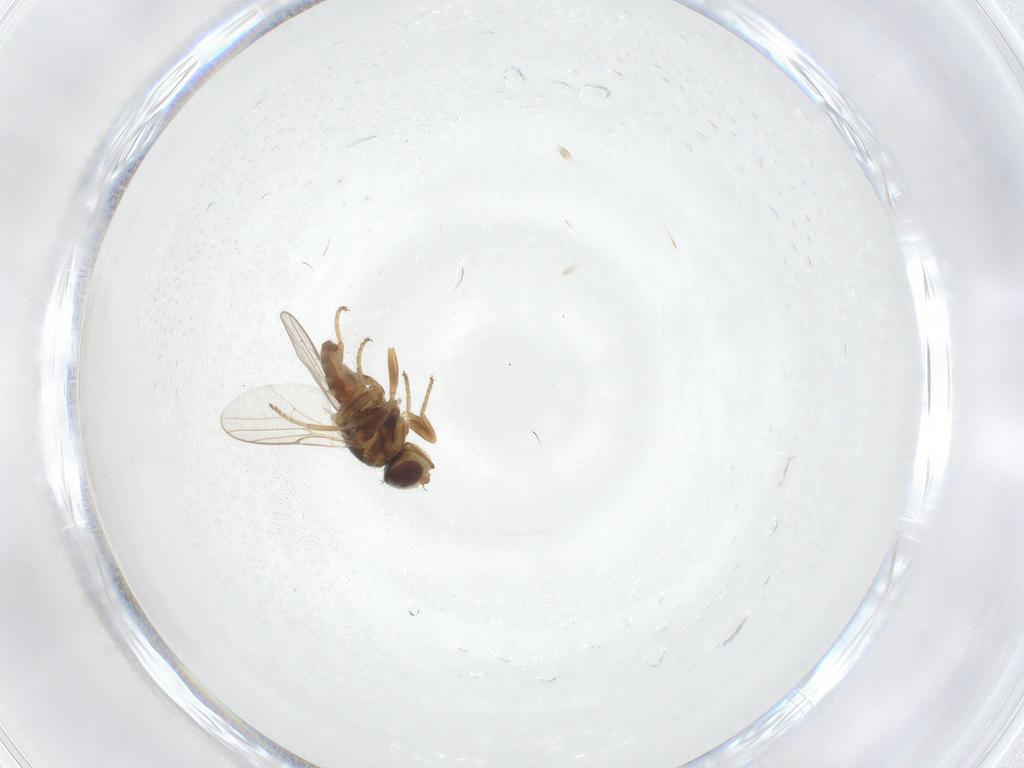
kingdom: Animalia
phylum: Arthropoda
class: Insecta
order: Diptera
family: Chloropidae
